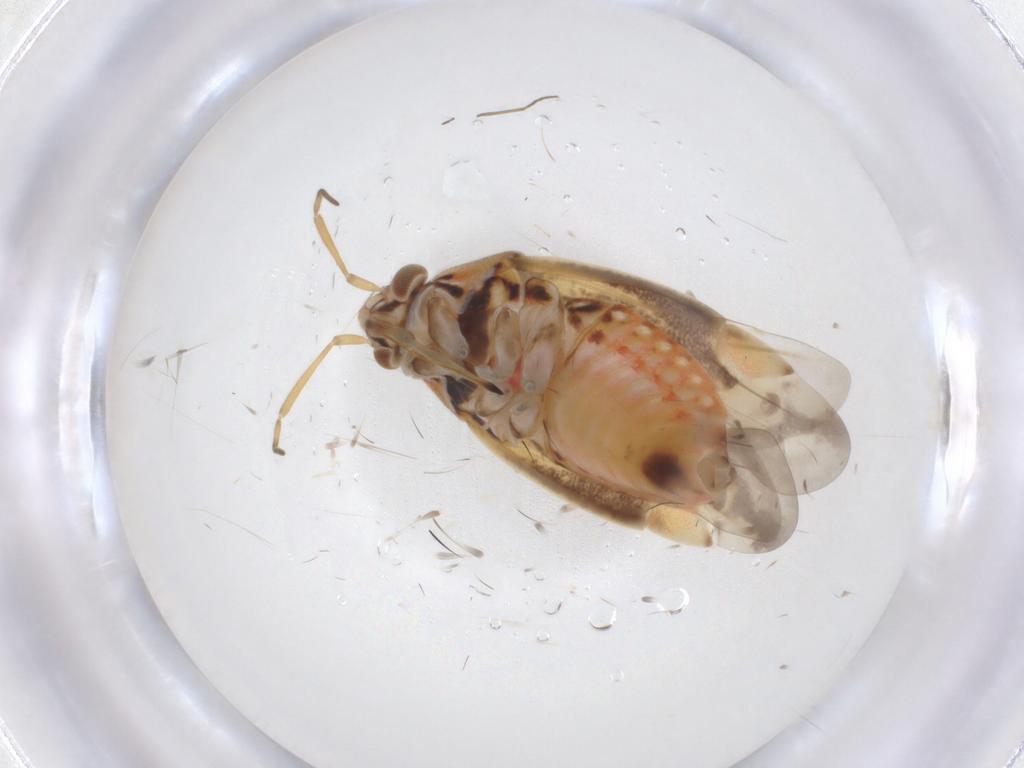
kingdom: Animalia
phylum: Arthropoda
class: Insecta
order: Hemiptera
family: Miridae
